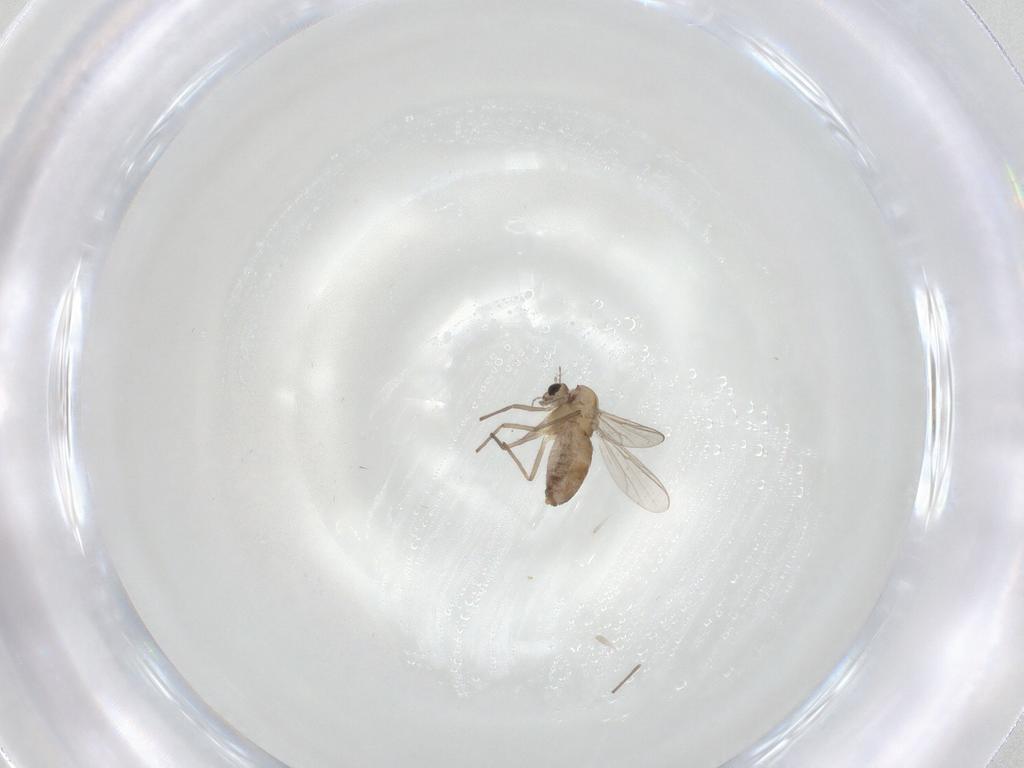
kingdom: Animalia
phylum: Arthropoda
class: Insecta
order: Diptera
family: Chironomidae
